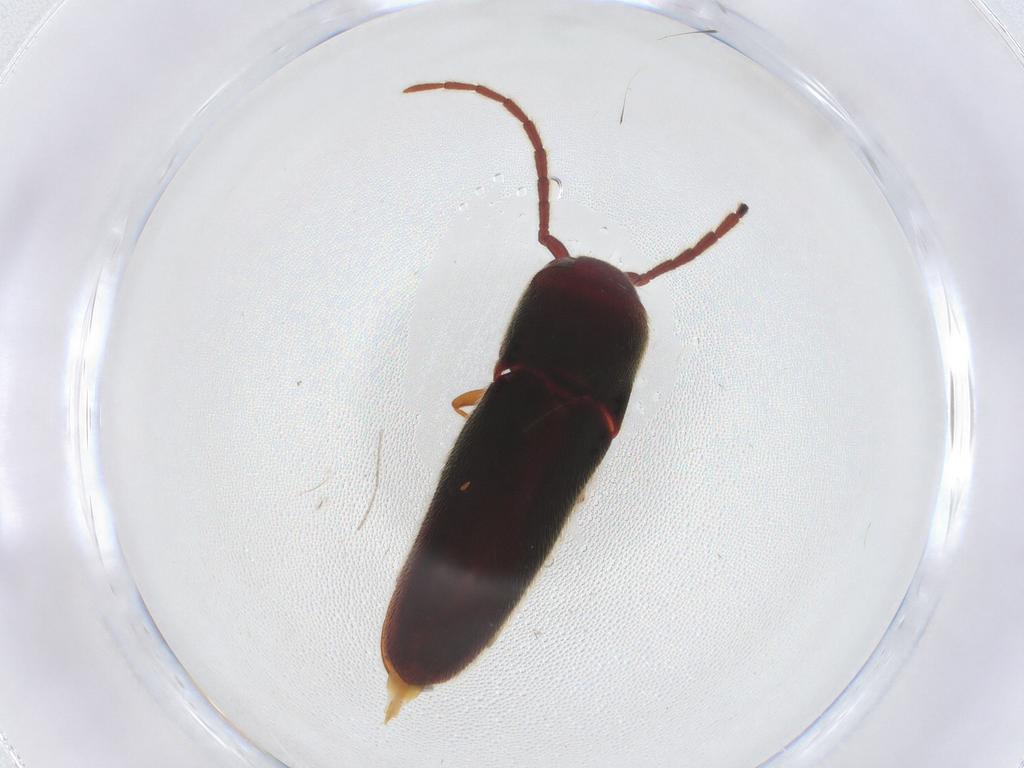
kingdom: Animalia
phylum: Arthropoda
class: Insecta
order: Coleoptera
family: Eucnemidae
